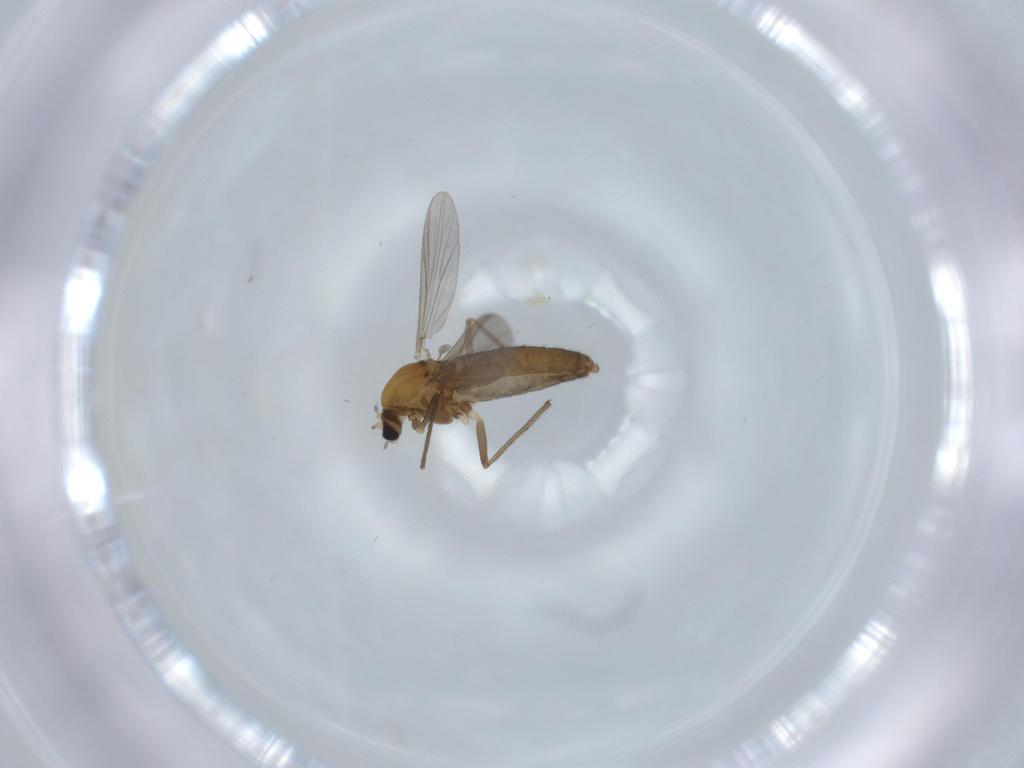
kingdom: Animalia
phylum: Arthropoda
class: Insecta
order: Diptera
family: Chironomidae
